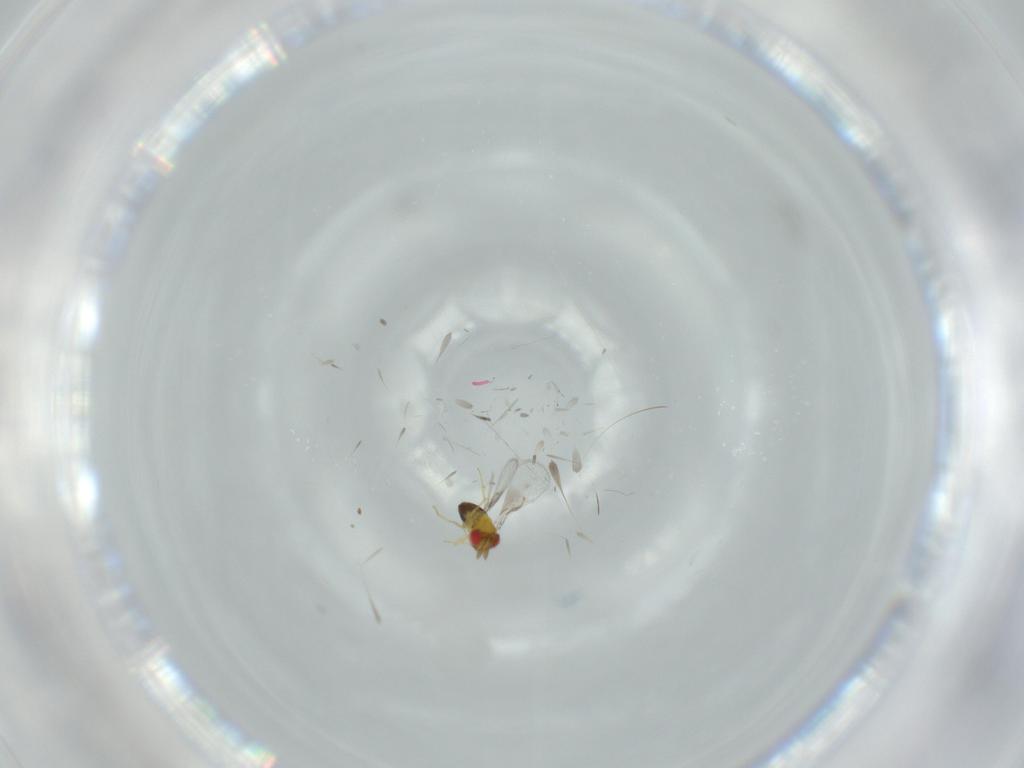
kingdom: Animalia
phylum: Arthropoda
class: Insecta
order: Hymenoptera
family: Trichogrammatidae
